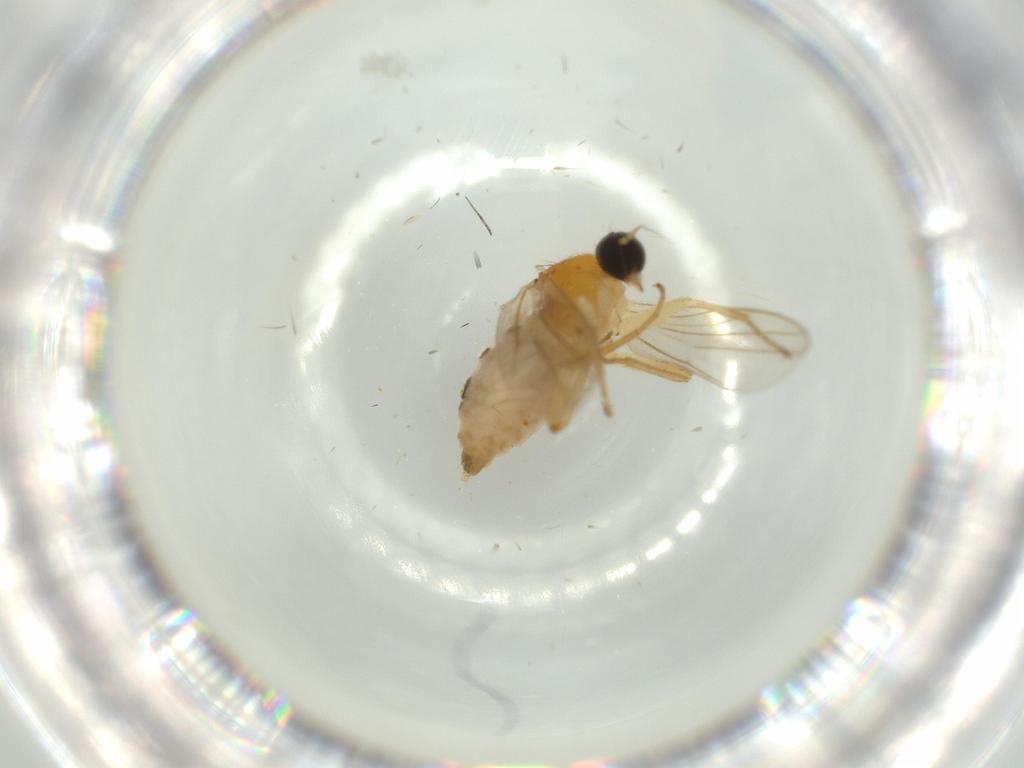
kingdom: Animalia
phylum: Arthropoda
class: Insecta
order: Diptera
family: Hybotidae
